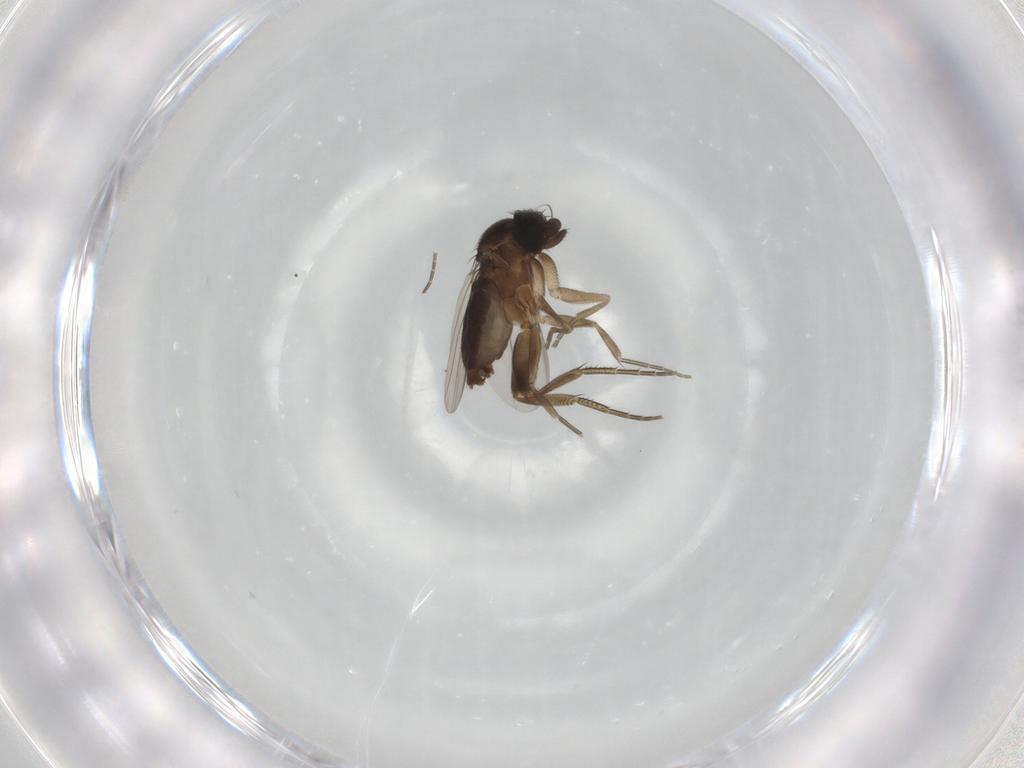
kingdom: Animalia
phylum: Arthropoda
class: Insecta
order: Diptera
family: Phoridae
